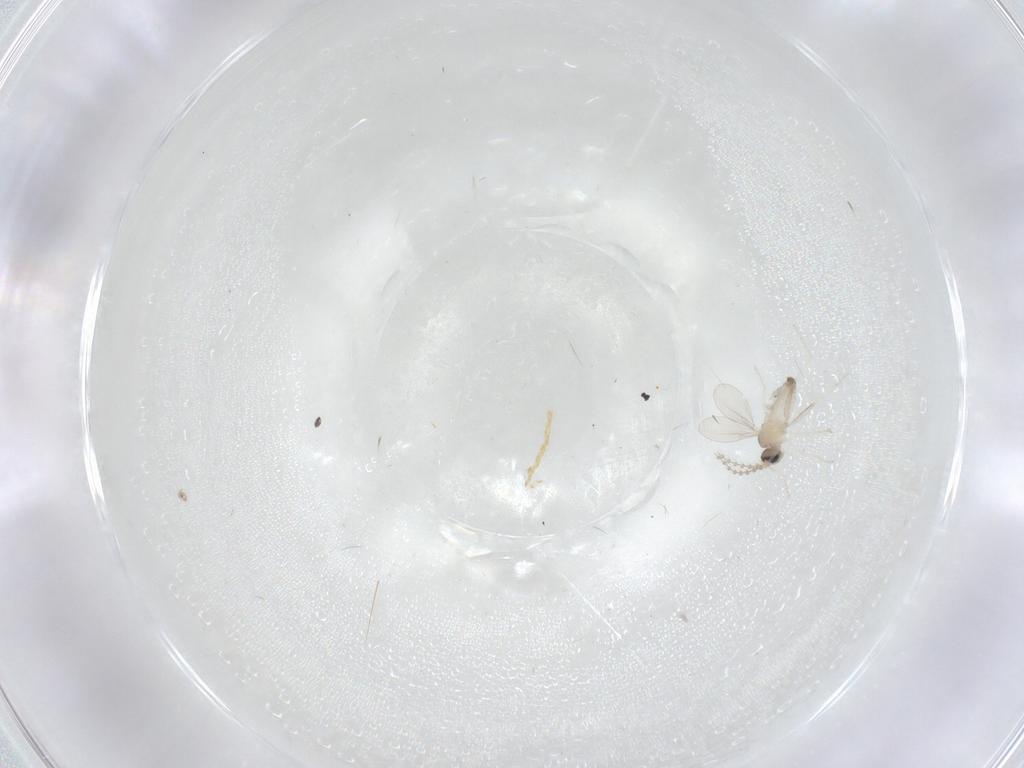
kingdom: Animalia
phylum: Arthropoda
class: Insecta
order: Diptera
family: Cecidomyiidae
